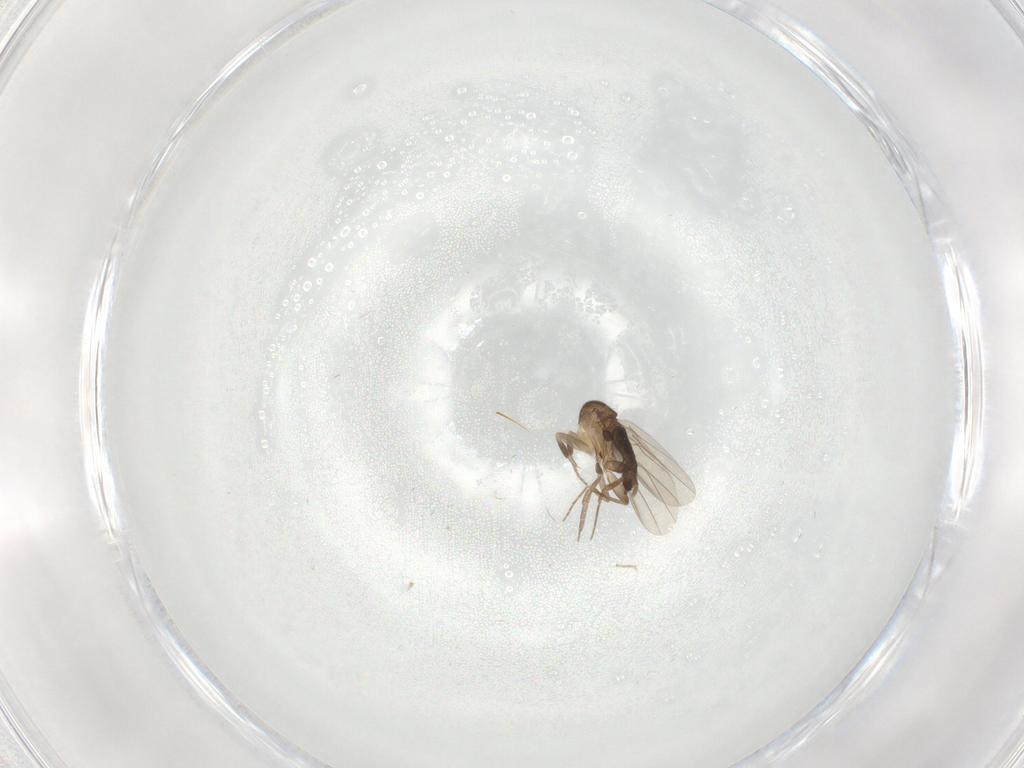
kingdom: Animalia
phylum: Arthropoda
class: Insecta
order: Diptera
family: Phoridae
